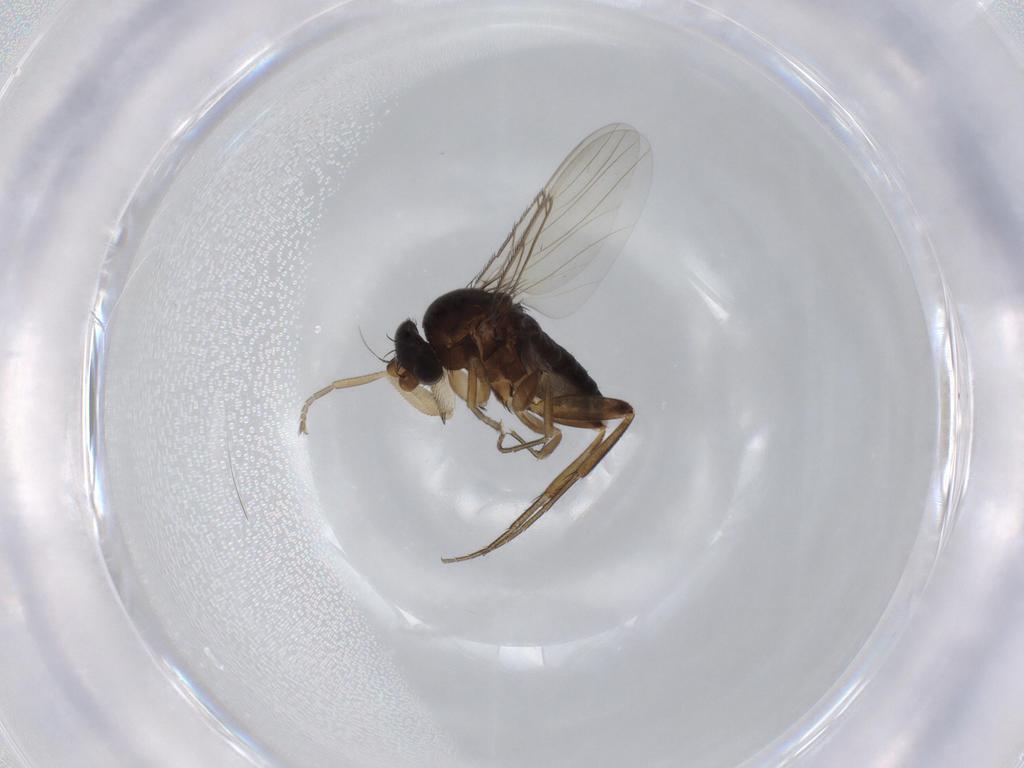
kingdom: Animalia
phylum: Arthropoda
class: Insecta
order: Diptera
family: Phoridae
